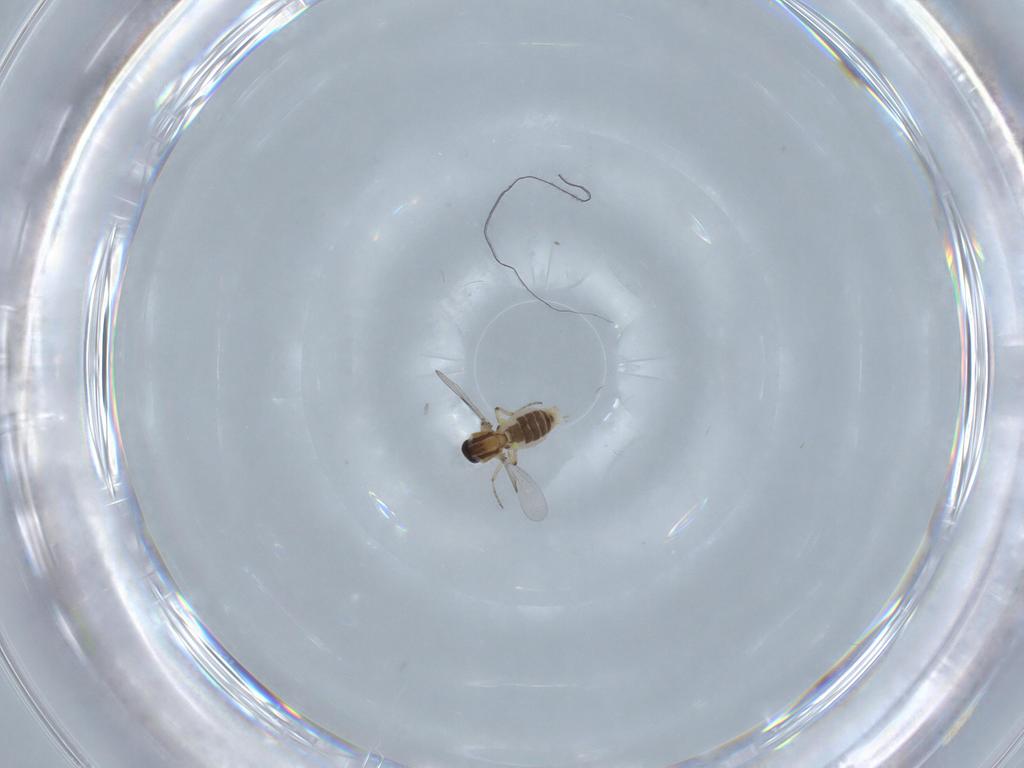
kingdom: Animalia
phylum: Arthropoda
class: Insecta
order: Diptera
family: Ceratopogonidae
